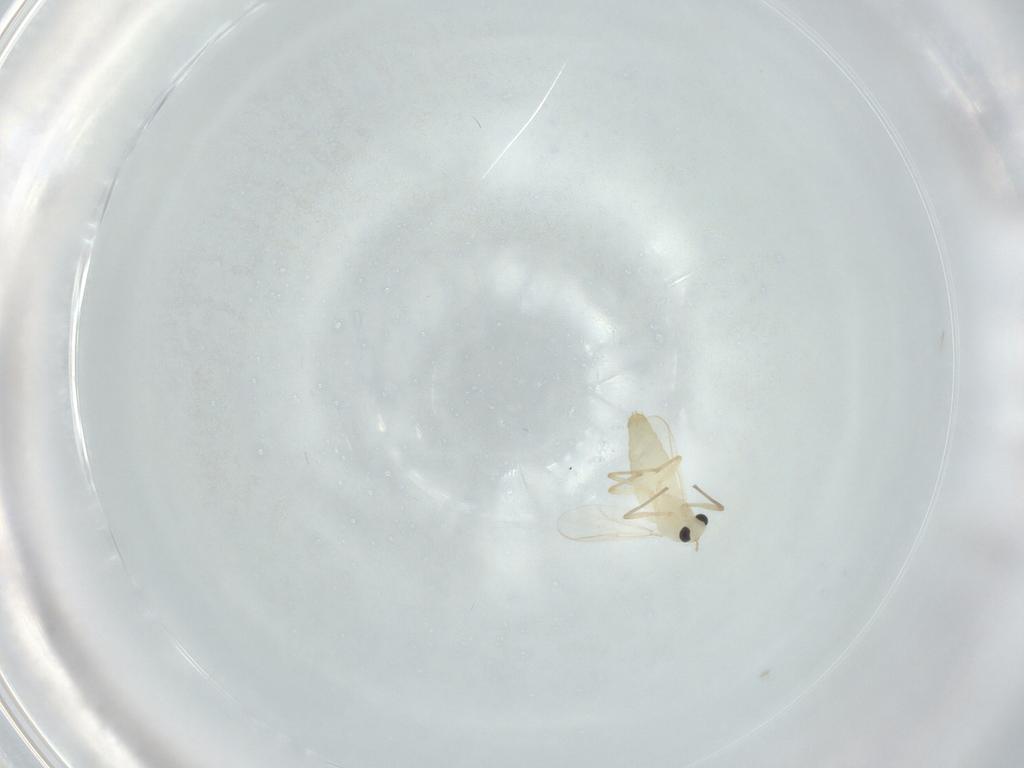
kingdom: Animalia
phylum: Arthropoda
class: Insecta
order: Diptera
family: Chironomidae
